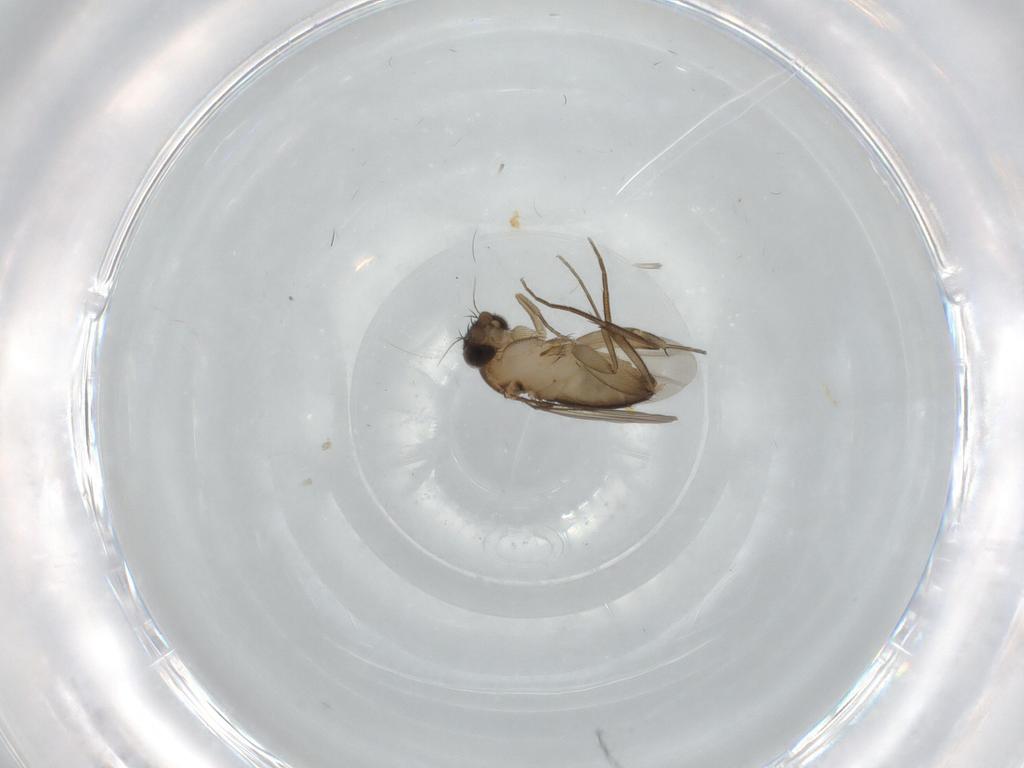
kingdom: Animalia
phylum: Arthropoda
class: Insecta
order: Diptera
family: Phoridae
